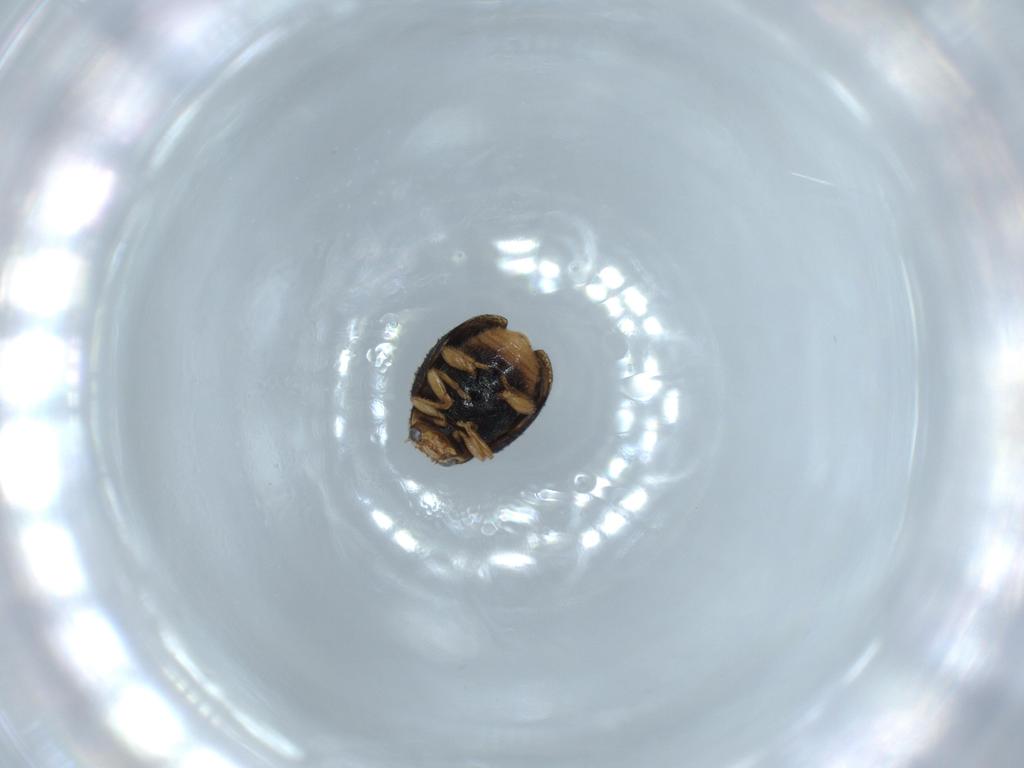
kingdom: Animalia
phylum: Arthropoda
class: Insecta
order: Coleoptera
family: Coccinellidae
